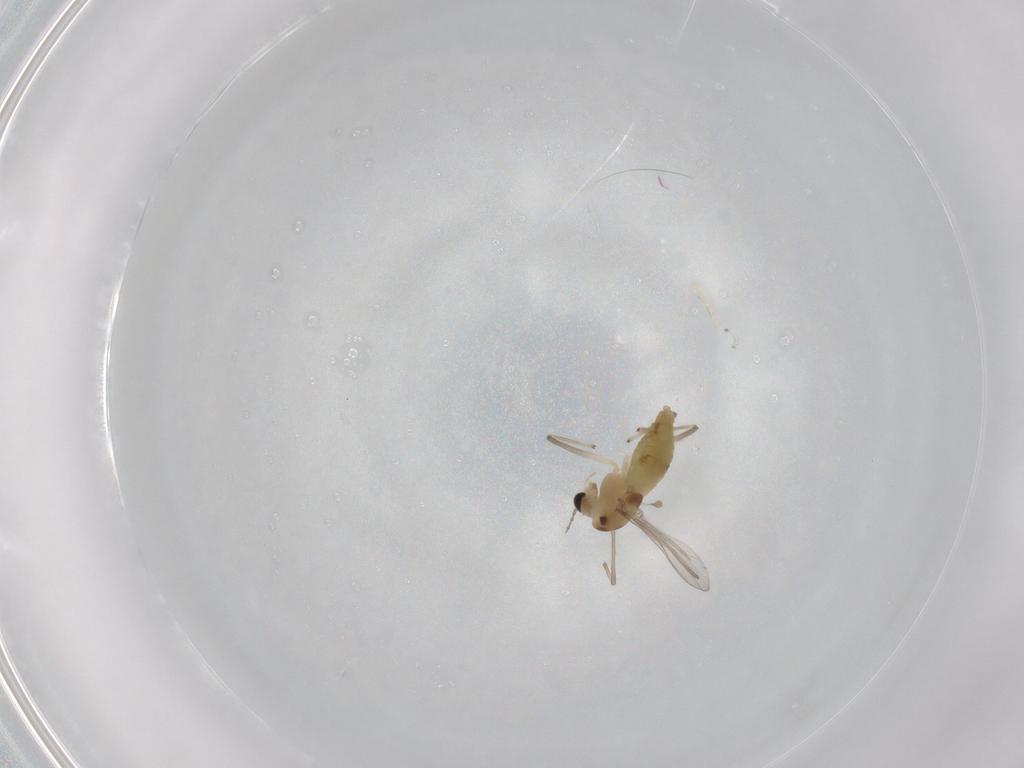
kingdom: Animalia
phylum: Arthropoda
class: Insecta
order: Diptera
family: Chironomidae
